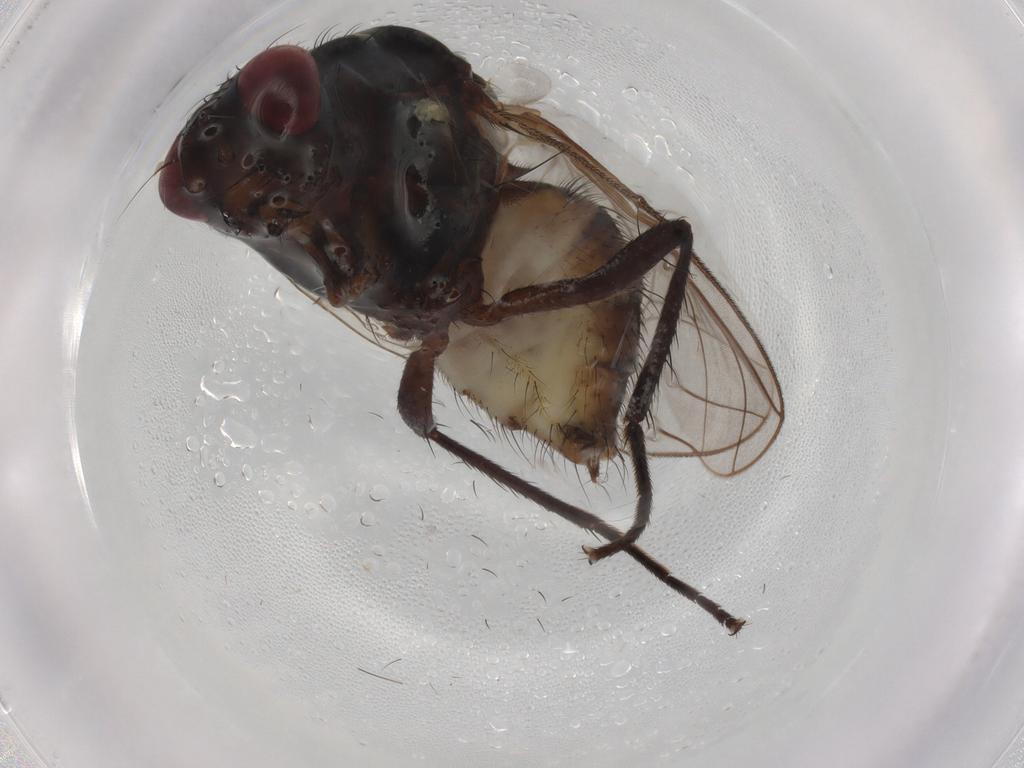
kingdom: Animalia
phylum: Arthropoda
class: Insecta
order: Diptera
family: Anthomyiidae
